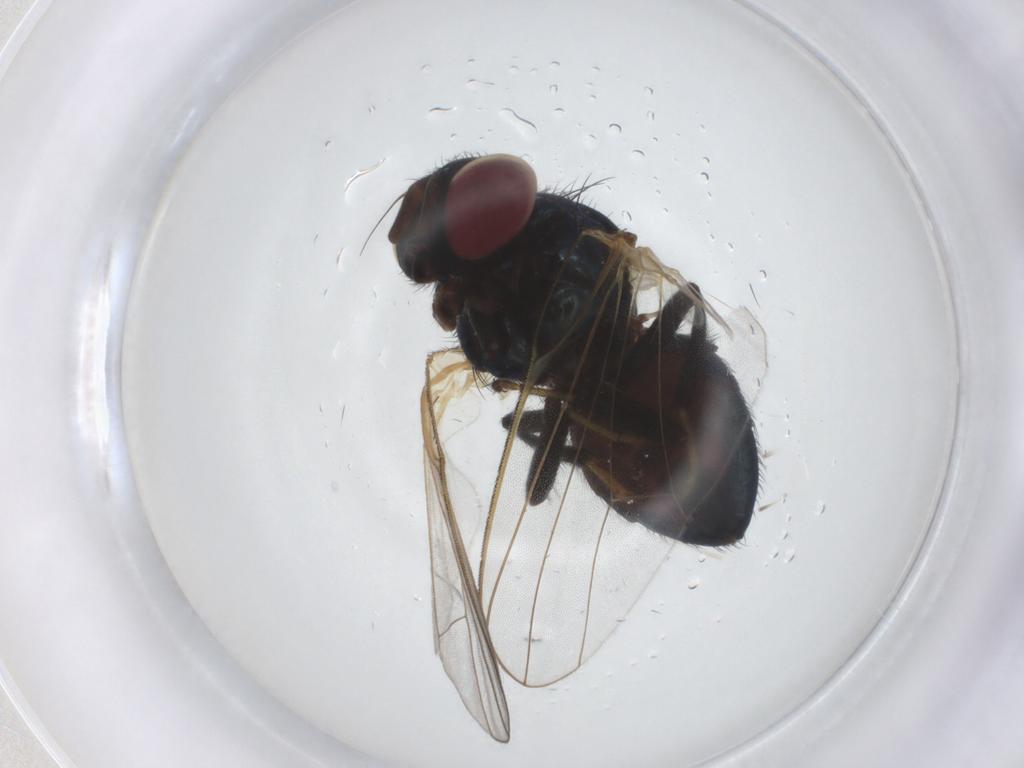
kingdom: Animalia
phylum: Arthropoda
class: Insecta
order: Diptera
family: Lonchaeidae
